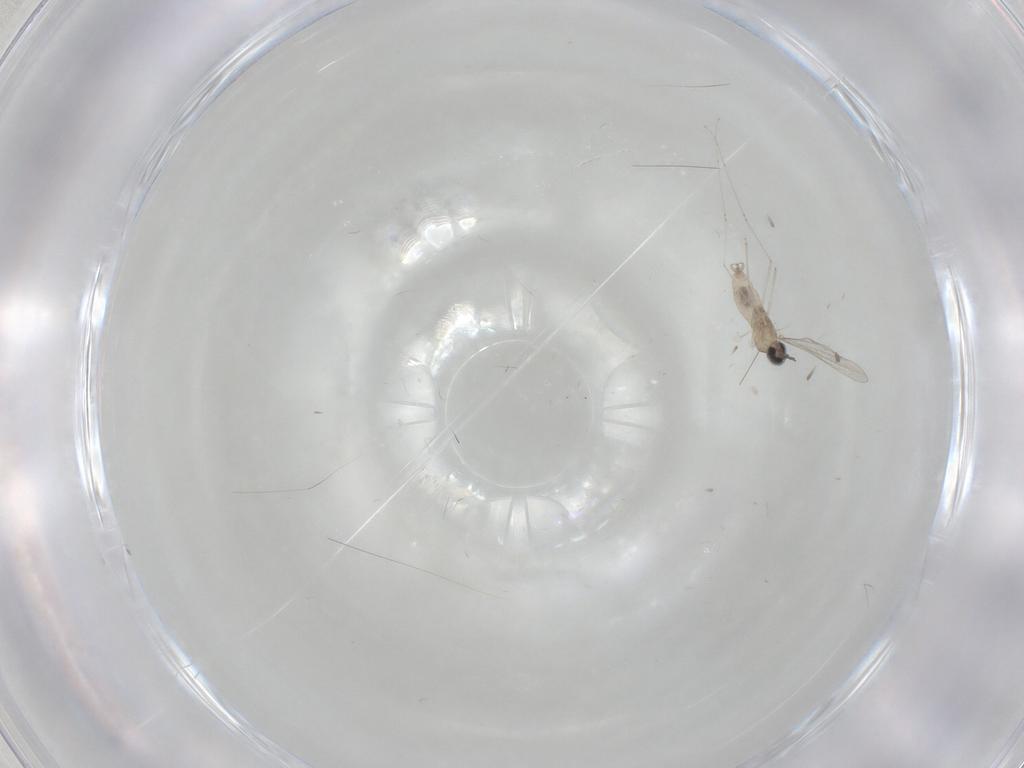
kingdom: Animalia
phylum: Arthropoda
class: Insecta
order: Diptera
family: Cecidomyiidae
